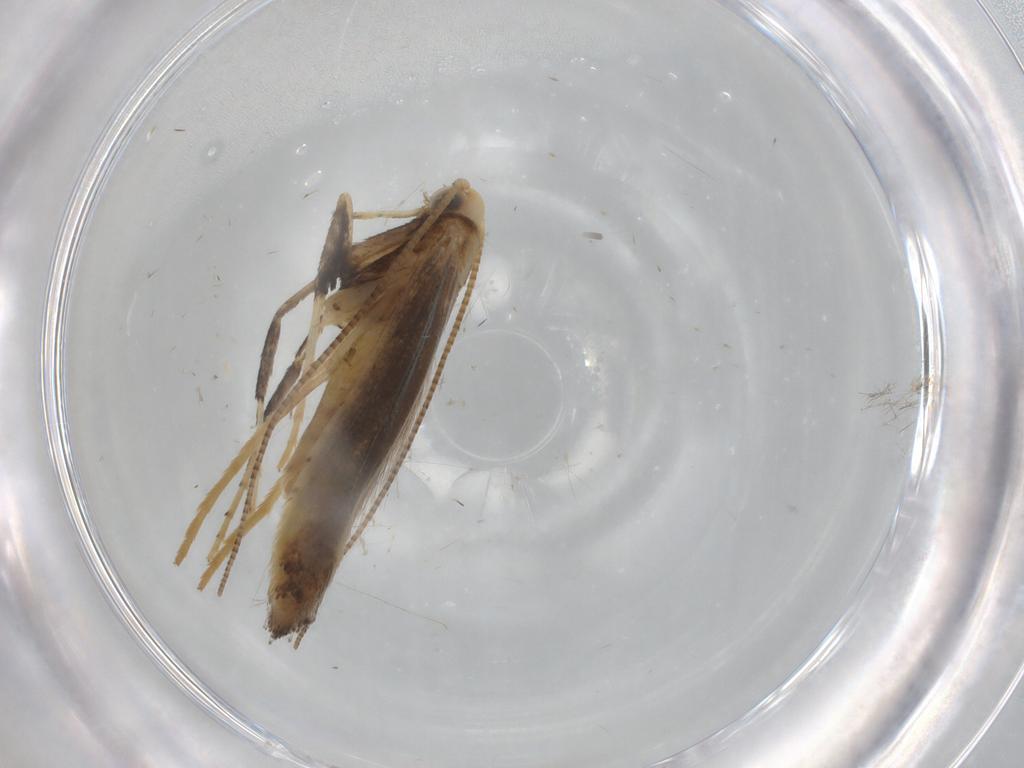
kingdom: Animalia
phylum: Arthropoda
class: Insecta
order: Lepidoptera
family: Gracillariidae
